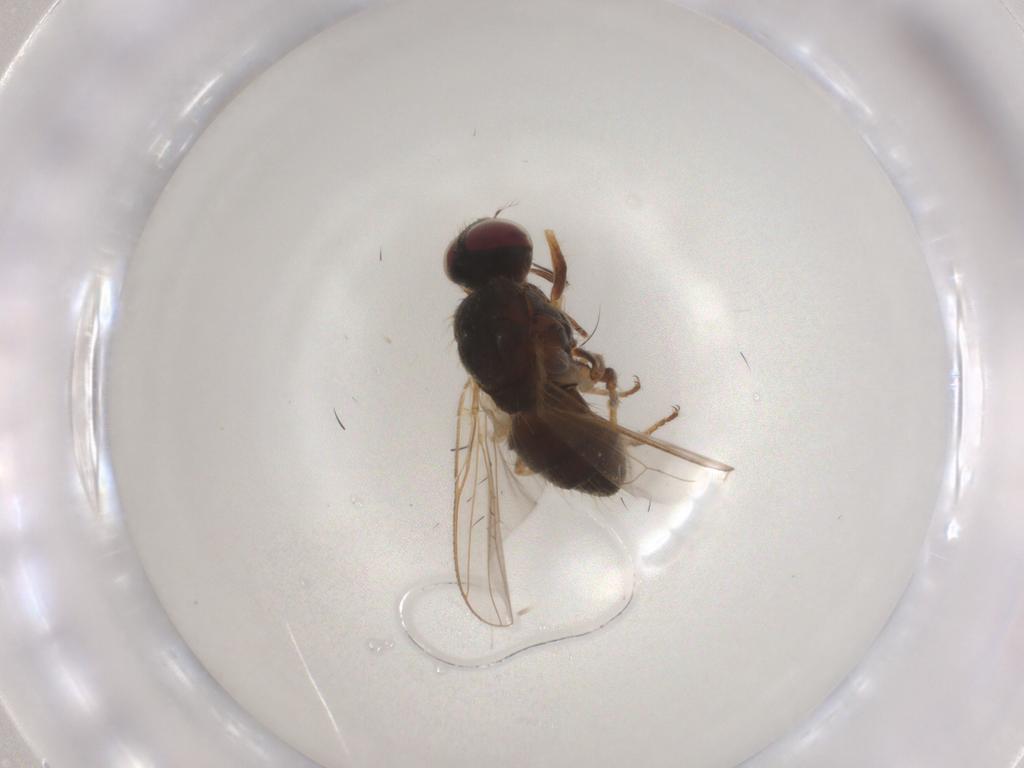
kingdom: Animalia
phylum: Arthropoda
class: Insecta
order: Diptera
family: Muscidae
